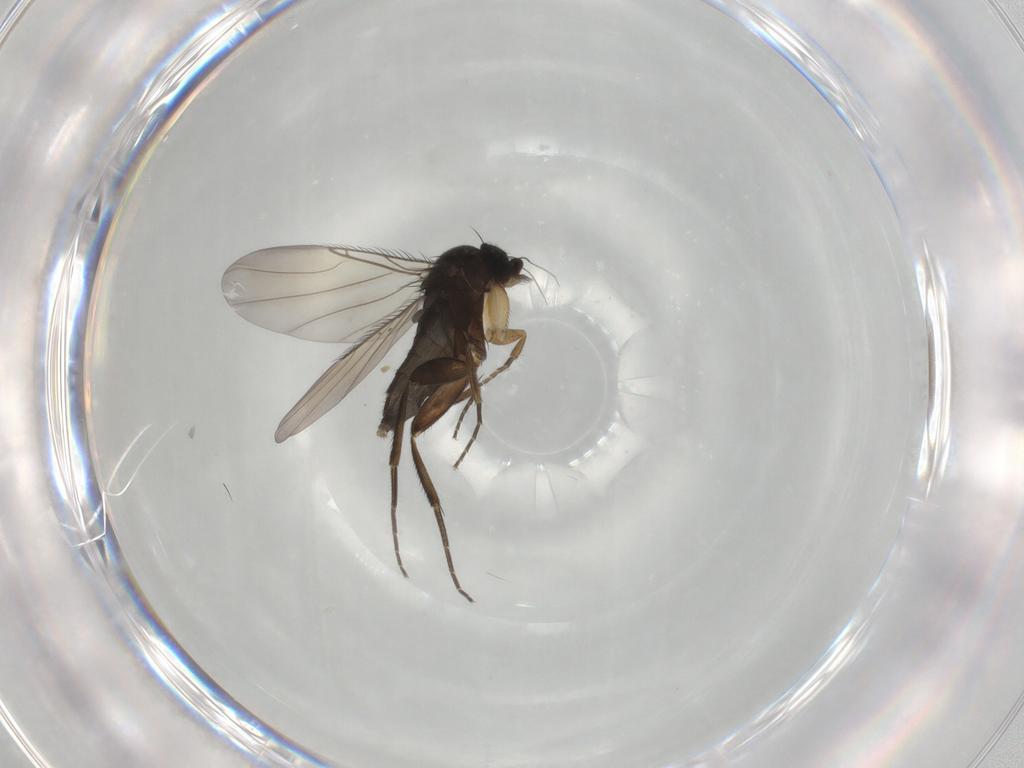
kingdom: Animalia
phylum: Arthropoda
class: Insecta
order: Diptera
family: Phoridae
